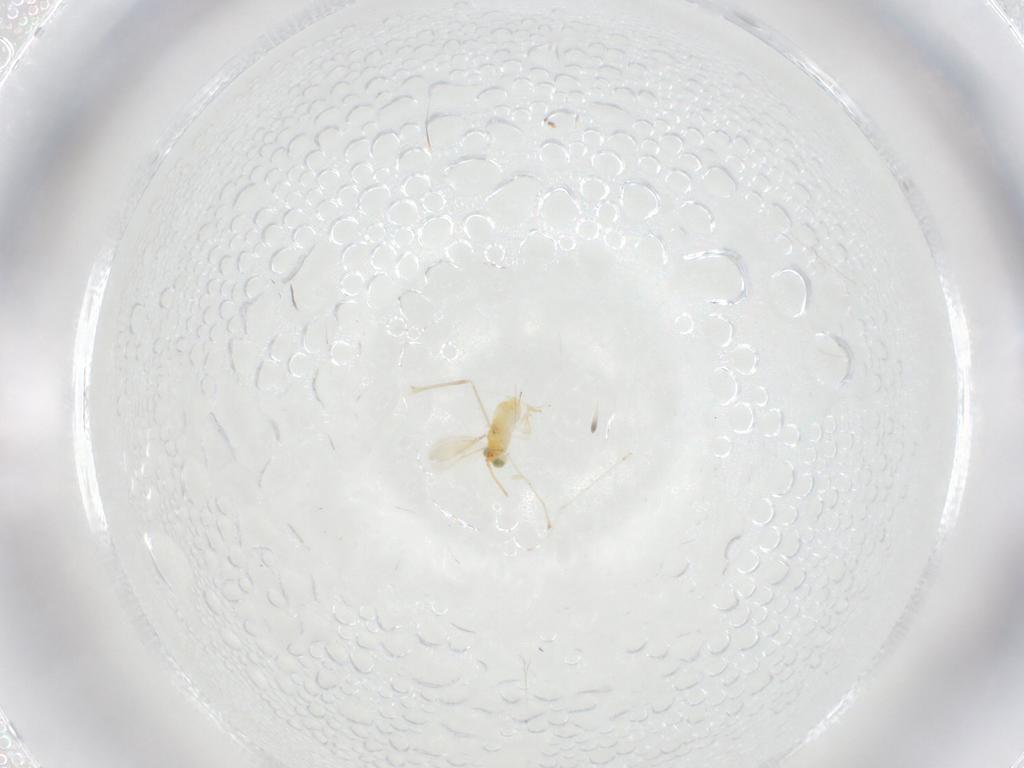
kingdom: Animalia
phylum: Arthropoda
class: Insecta
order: Hymenoptera
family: Aphelinidae
